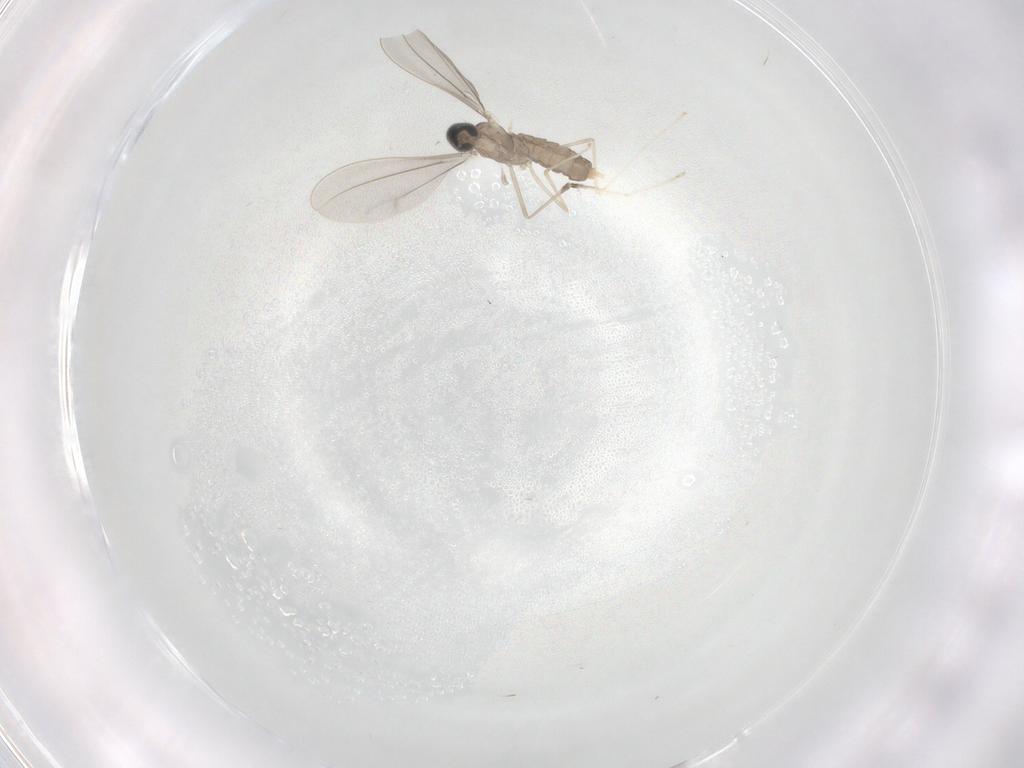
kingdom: Animalia
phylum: Arthropoda
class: Insecta
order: Diptera
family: Cecidomyiidae
